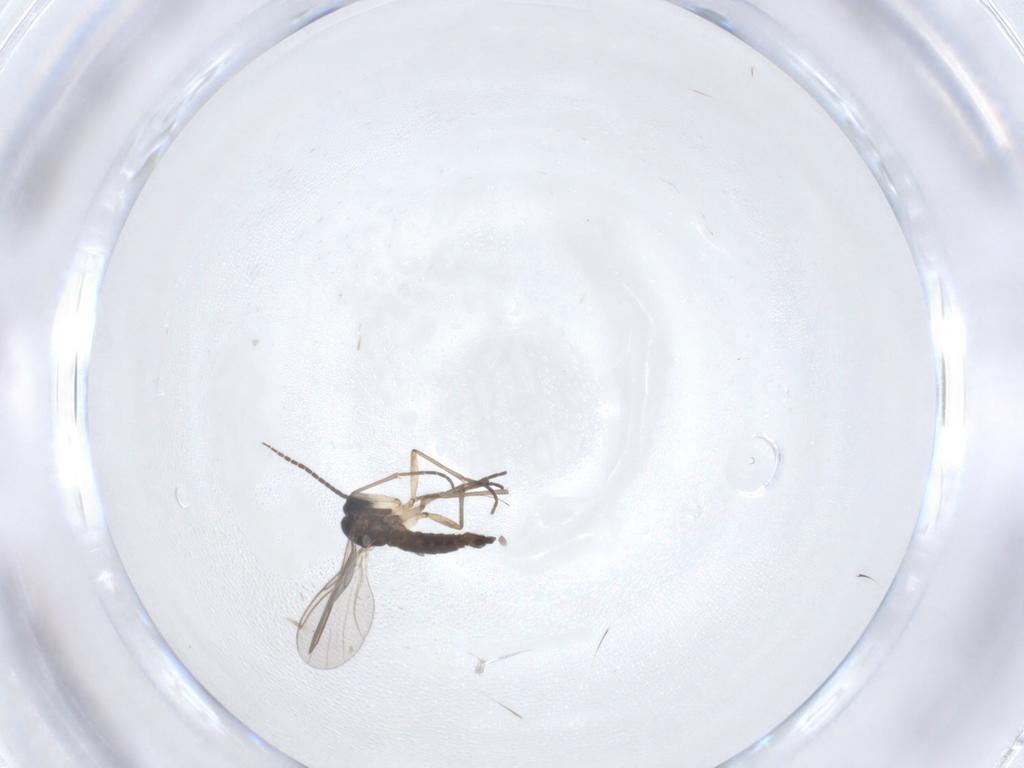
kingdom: Animalia
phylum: Arthropoda
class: Insecta
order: Diptera
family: Sciaridae
